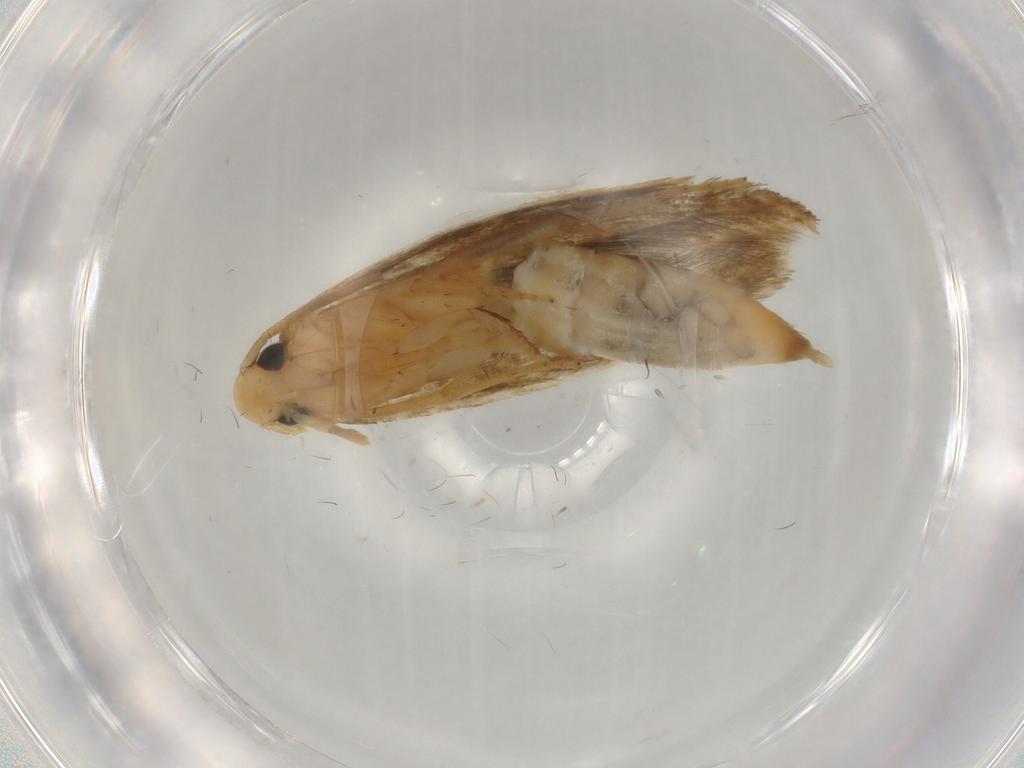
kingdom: Animalia
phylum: Arthropoda
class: Insecta
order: Lepidoptera
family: Tineidae
